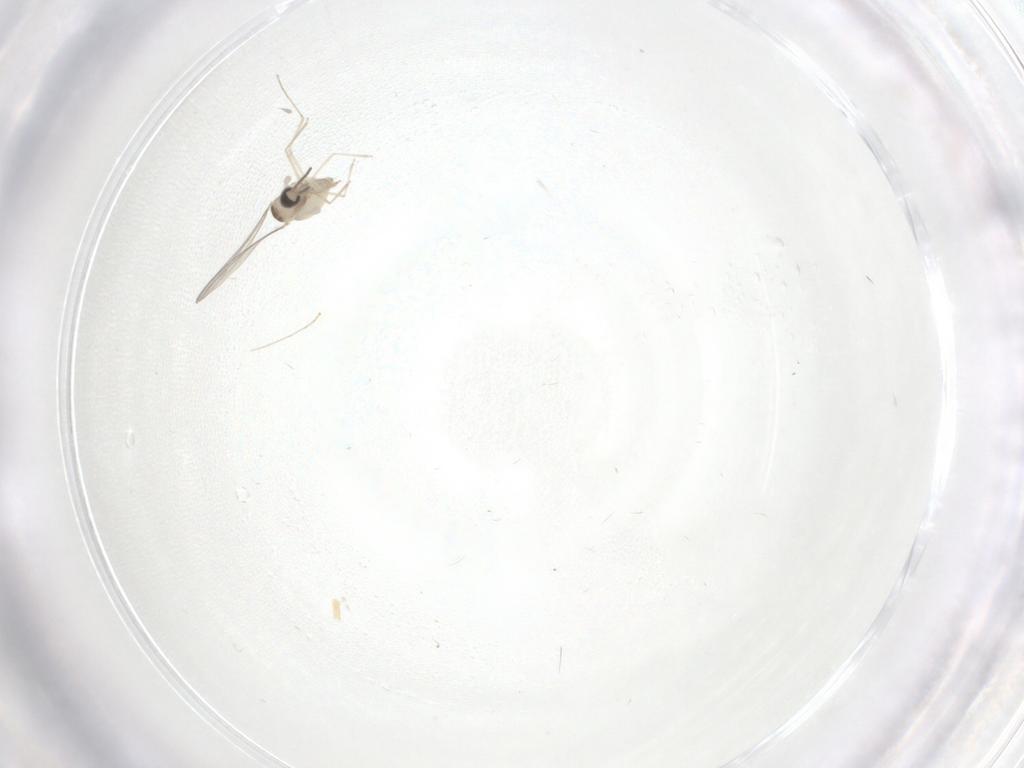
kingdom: Animalia
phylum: Arthropoda
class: Insecta
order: Diptera
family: Cecidomyiidae
